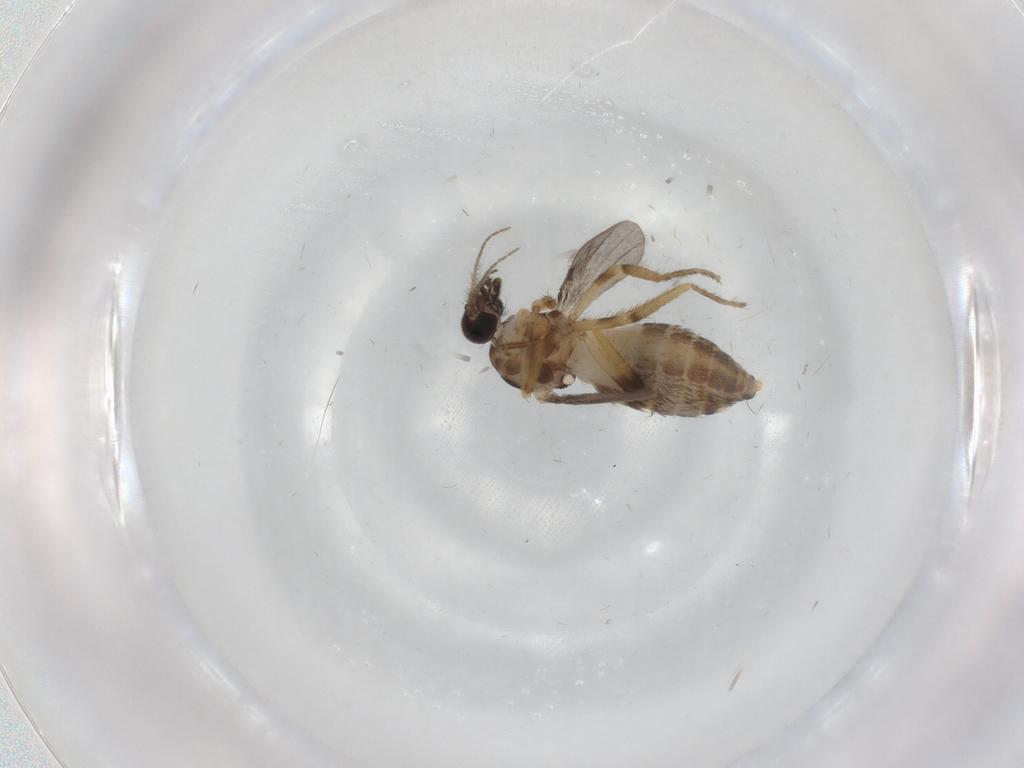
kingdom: Animalia
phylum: Arthropoda
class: Insecta
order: Diptera
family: Ceratopogonidae
